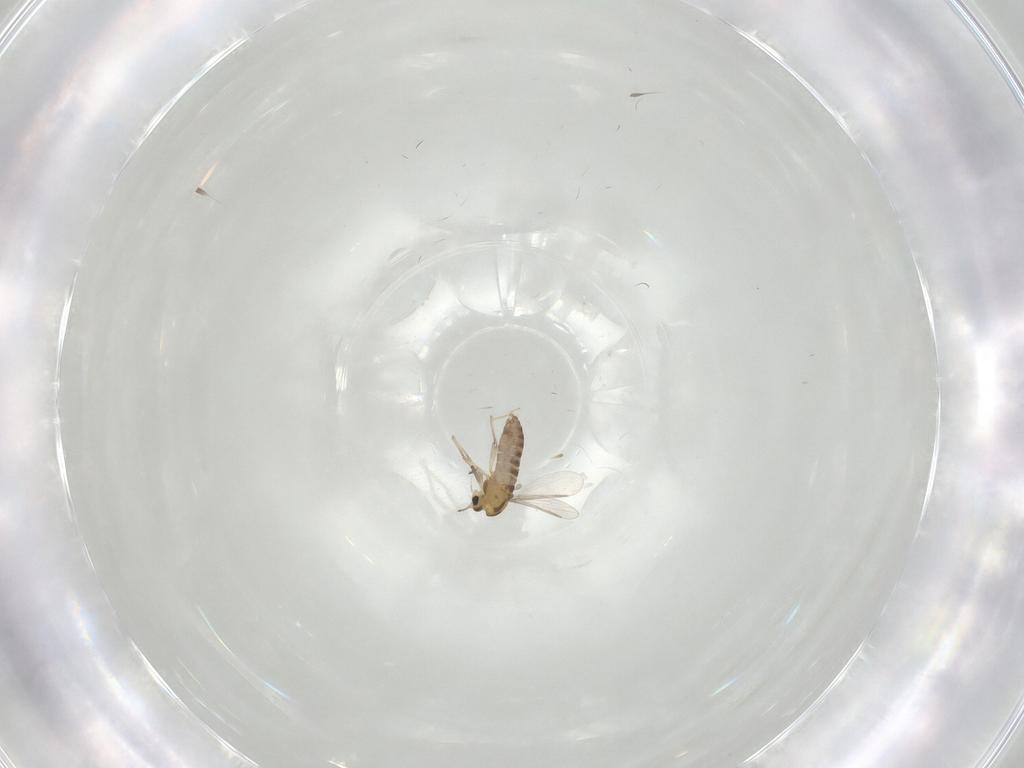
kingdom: Animalia
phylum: Arthropoda
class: Insecta
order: Diptera
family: Chironomidae
